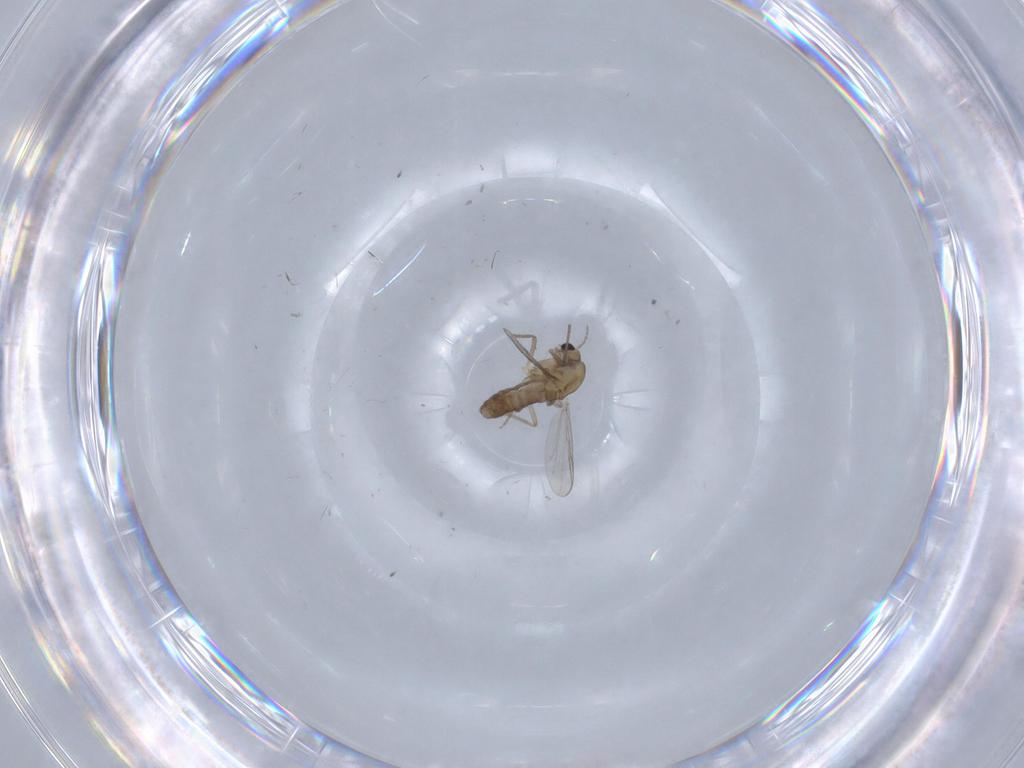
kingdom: Animalia
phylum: Arthropoda
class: Insecta
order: Diptera
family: Chironomidae
